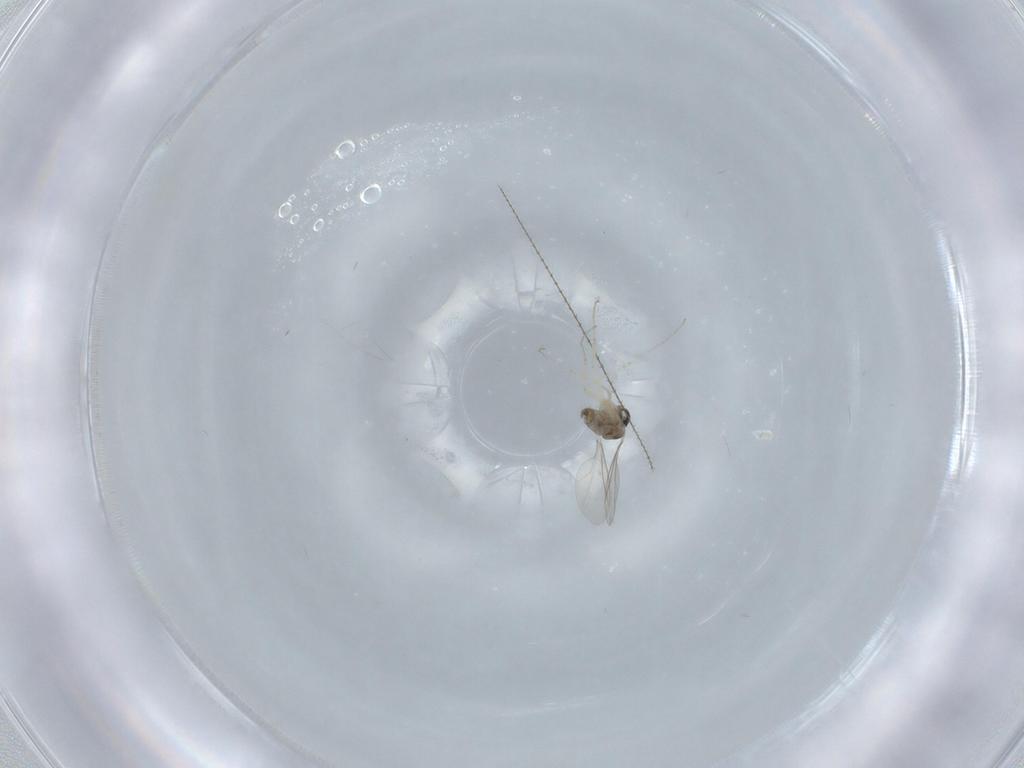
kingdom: Animalia
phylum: Arthropoda
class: Insecta
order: Diptera
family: Cecidomyiidae
